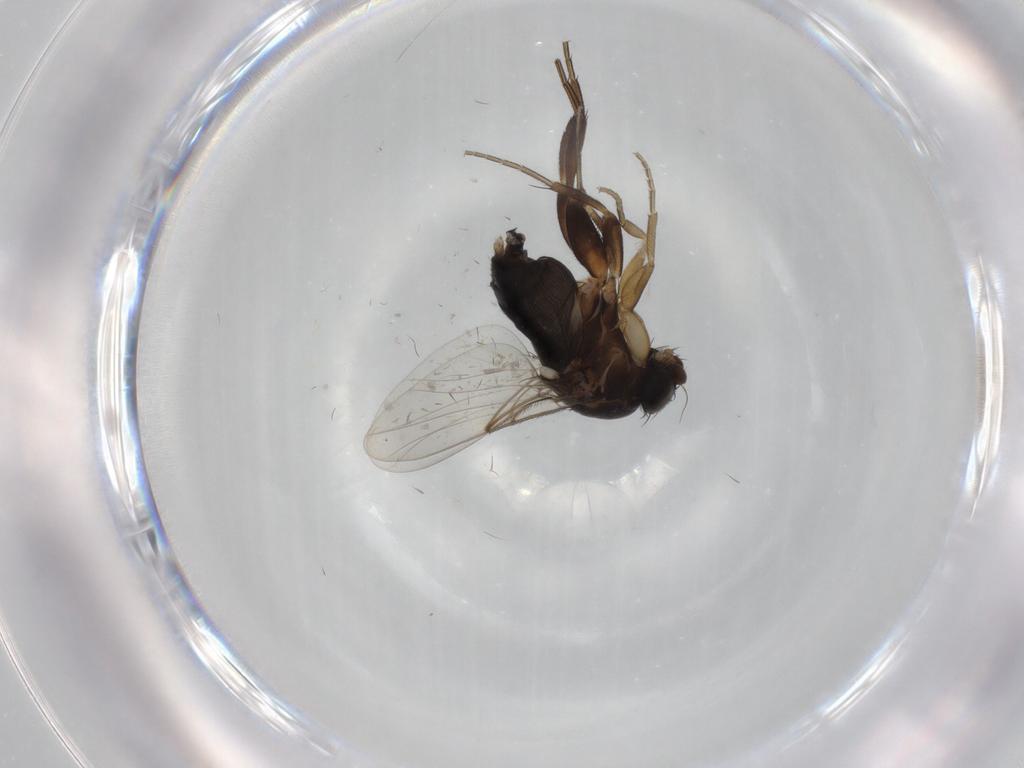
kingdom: Animalia
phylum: Arthropoda
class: Insecta
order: Diptera
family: Phoridae
